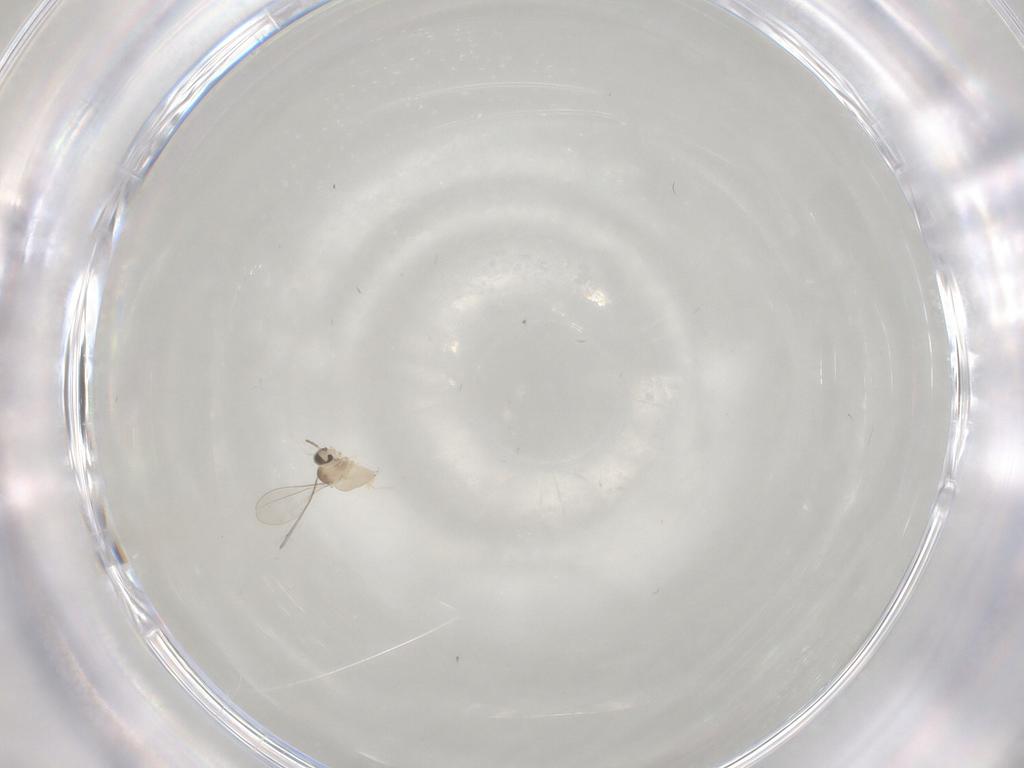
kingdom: Animalia
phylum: Arthropoda
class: Insecta
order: Diptera
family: Cecidomyiidae
